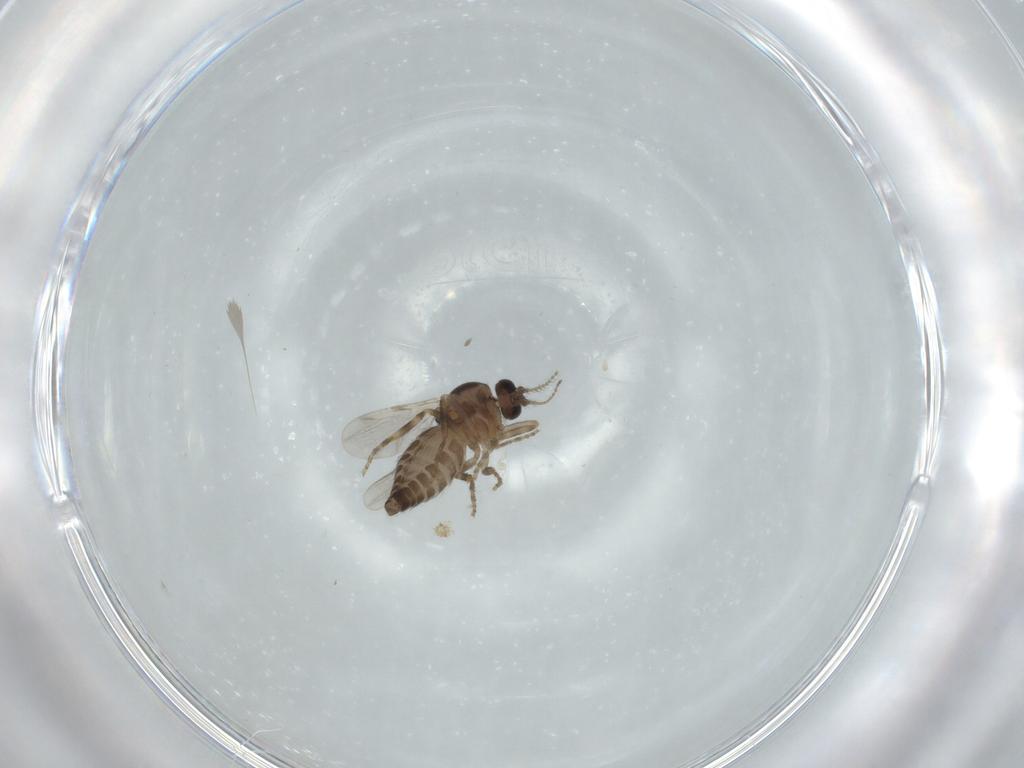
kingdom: Animalia
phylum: Arthropoda
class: Insecta
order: Diptera
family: Ceratopogonidae
